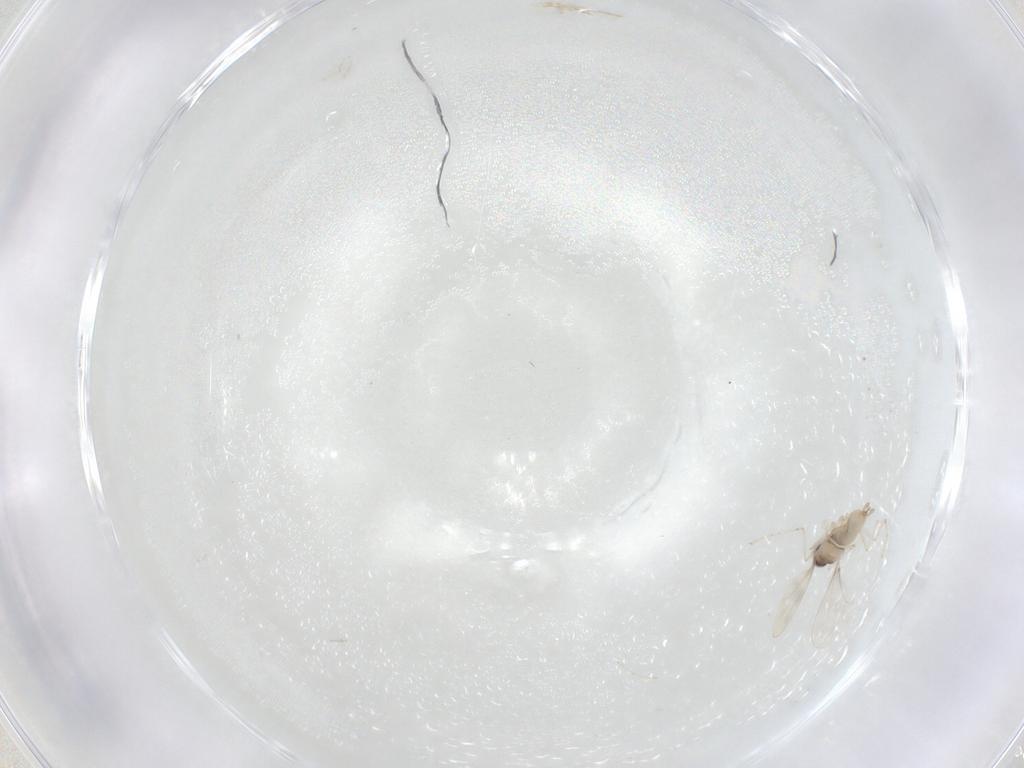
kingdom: Animalia
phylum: Arthropoda
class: Insecta
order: Diptera
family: Cecidomyiidae
